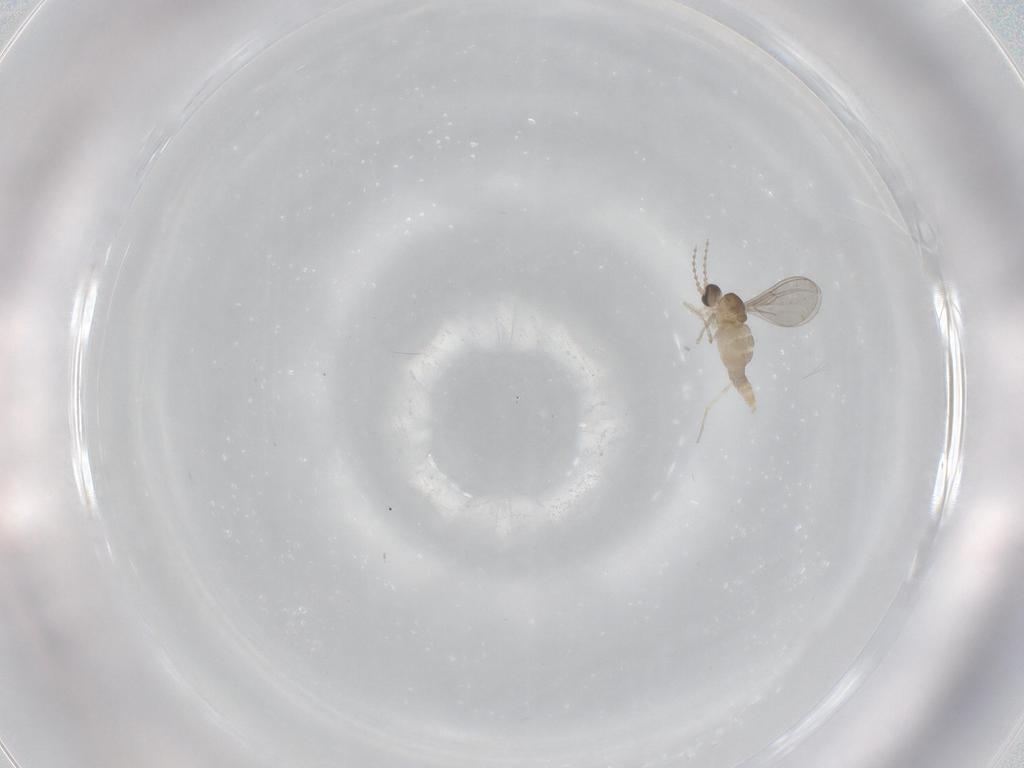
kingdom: Animalia
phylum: Arthropoda
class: Insecta
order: Diptera
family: Cecidomyiidae
